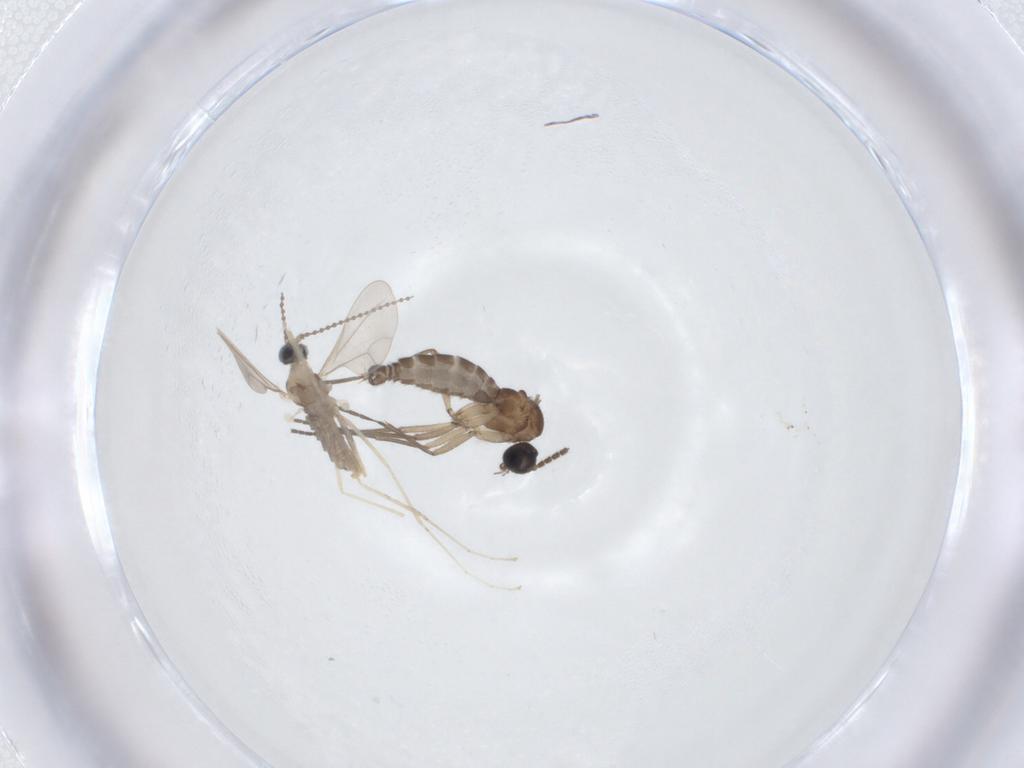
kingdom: Animalia
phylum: Arthropoda
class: Insecta
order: Diptera
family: Sciaridae
